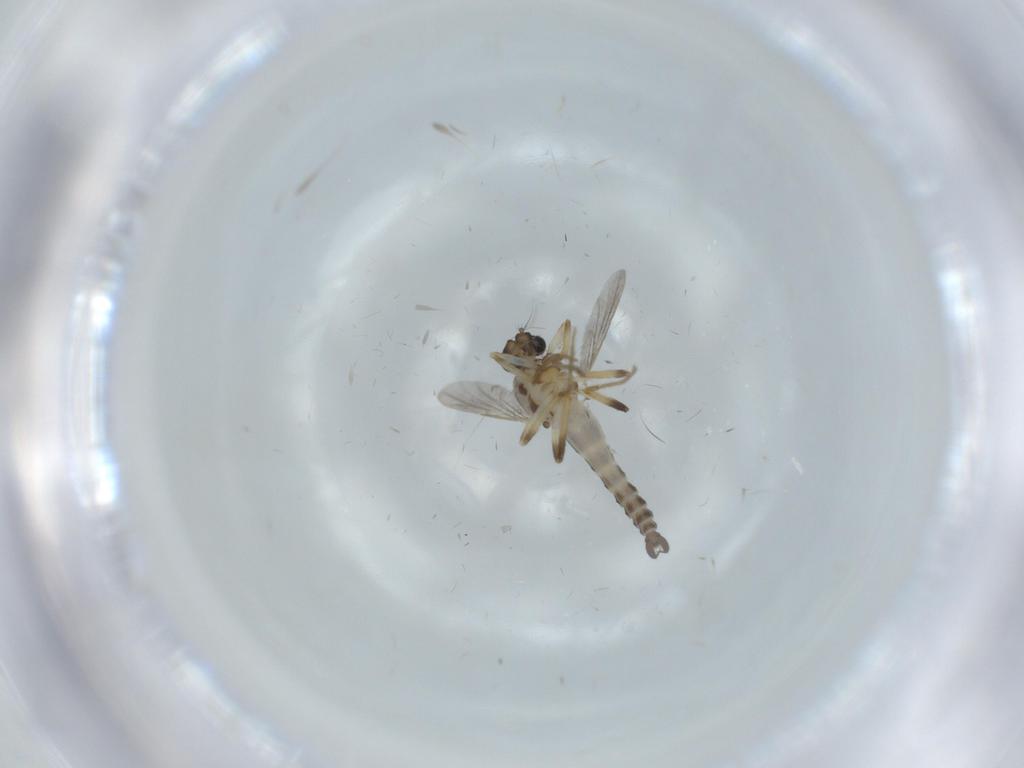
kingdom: Animalia
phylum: Arthropoda
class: Insecta
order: Diptera
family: Ceratopogonidae
